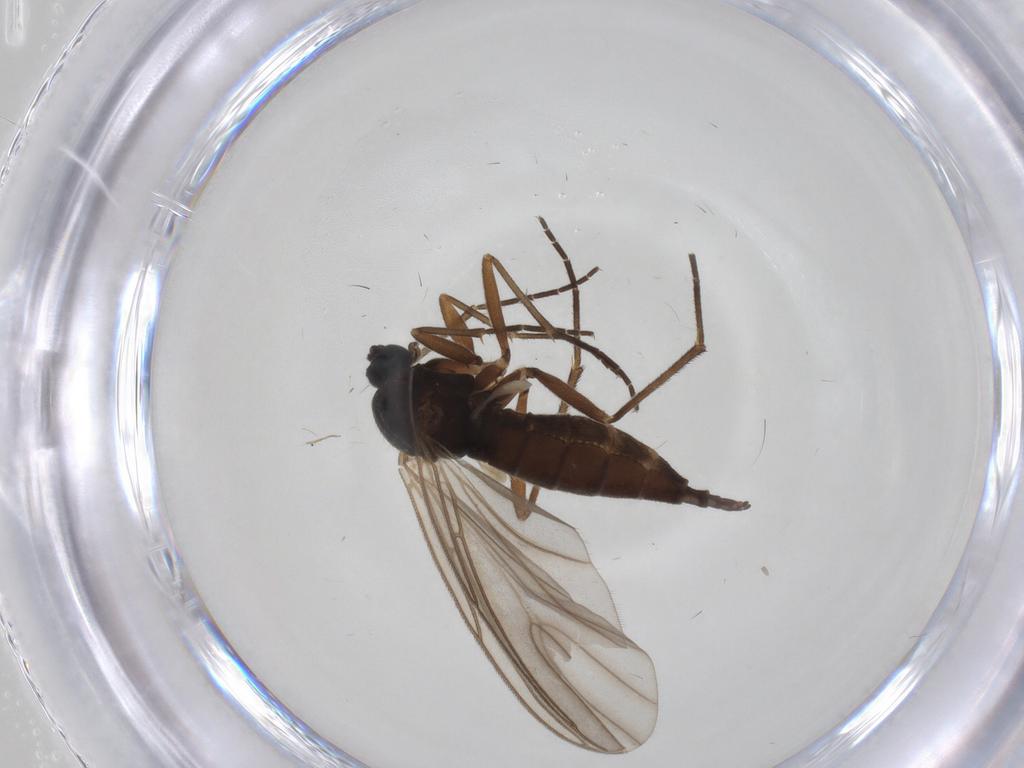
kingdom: Animalia
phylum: Arthropoda
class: Insecta
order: Diptera
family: Sciaridae
